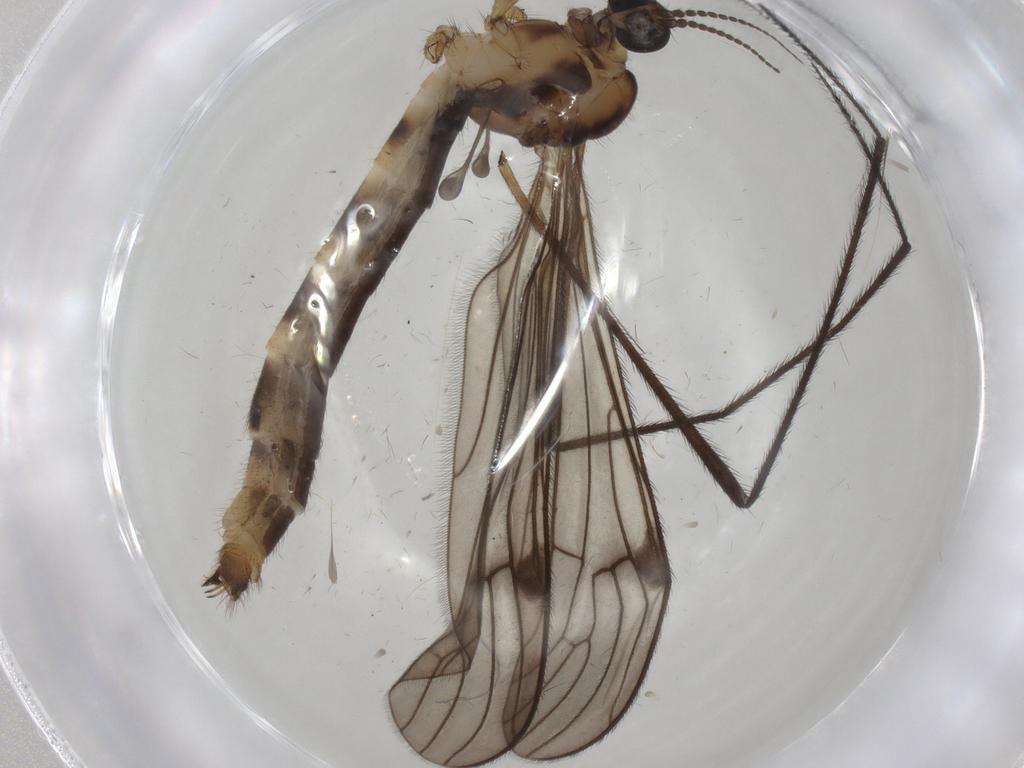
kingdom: Animalia
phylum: Arthropoda
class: Insecta
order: Diptera
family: Limoniidae
